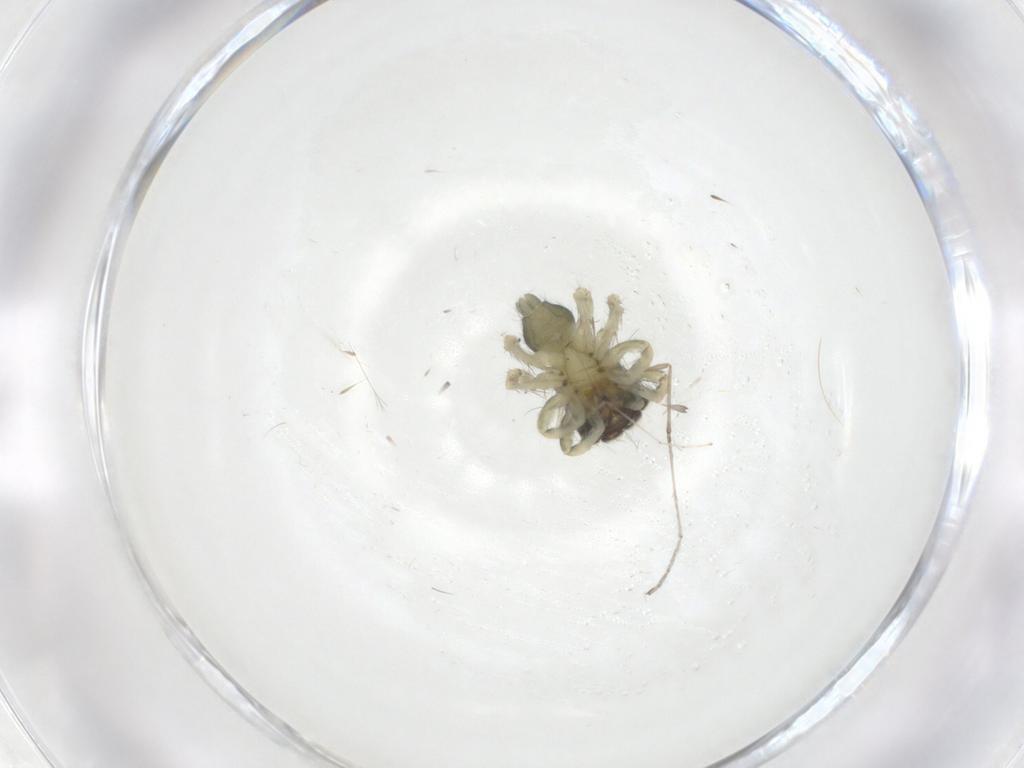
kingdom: Animalia
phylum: Arthropoda
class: Arachnida
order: Araneae
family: Salticidae
